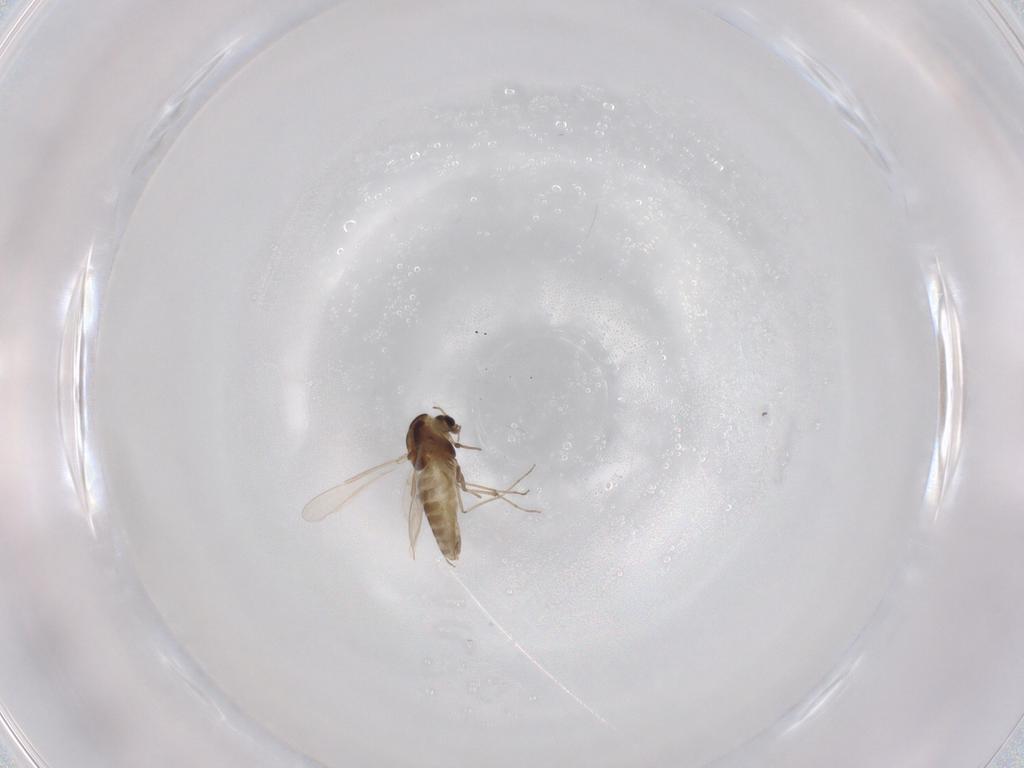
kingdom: Animalia
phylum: Arthropoda
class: Insecta
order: Diptera
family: Chironomidae
